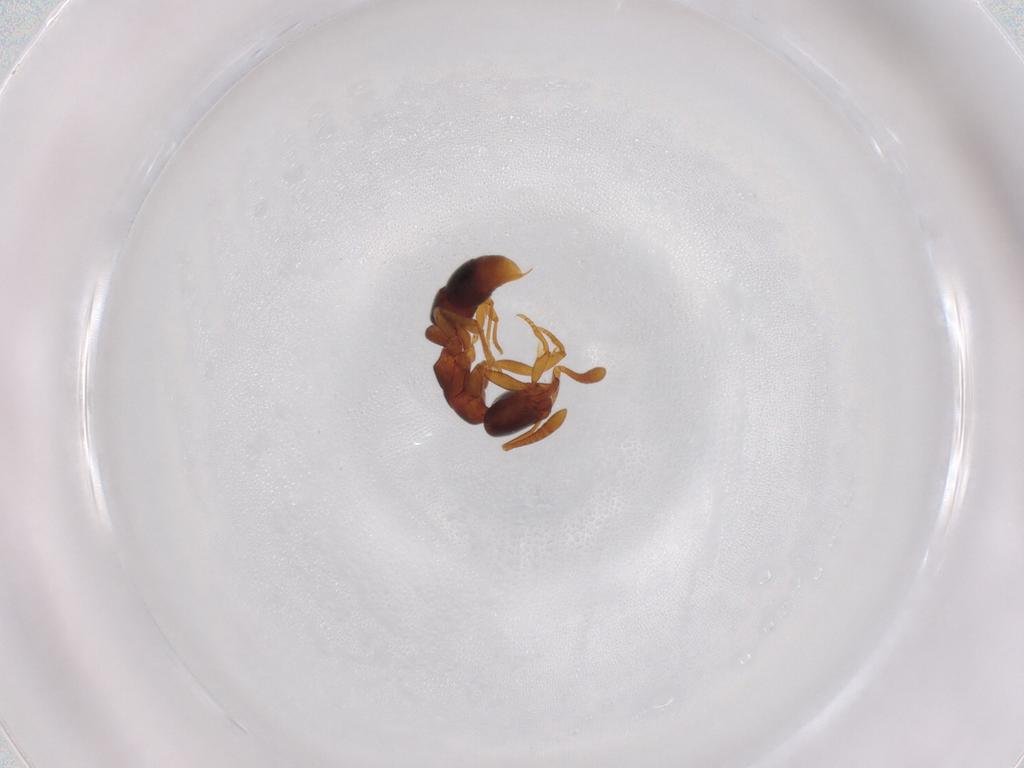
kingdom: Animalia
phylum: Arthropoda
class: Insecta
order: Hymenoptera
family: Formicidae
